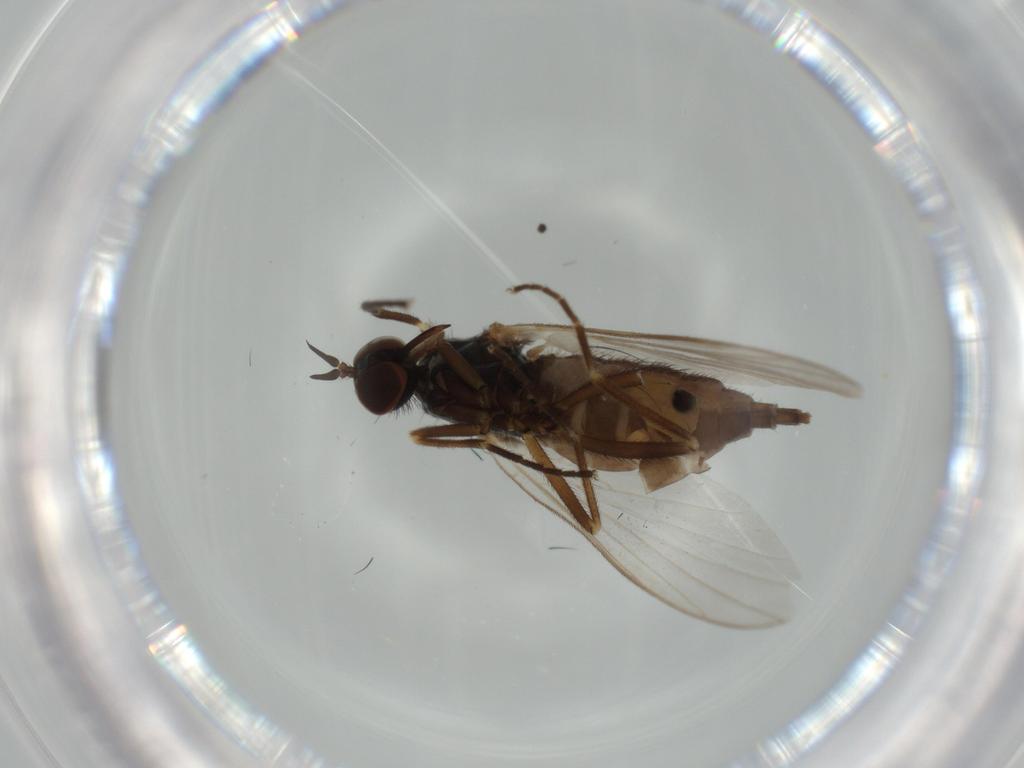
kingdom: Animalia
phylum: Arthropoda
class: Insecta
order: Diptera
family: Empididae
